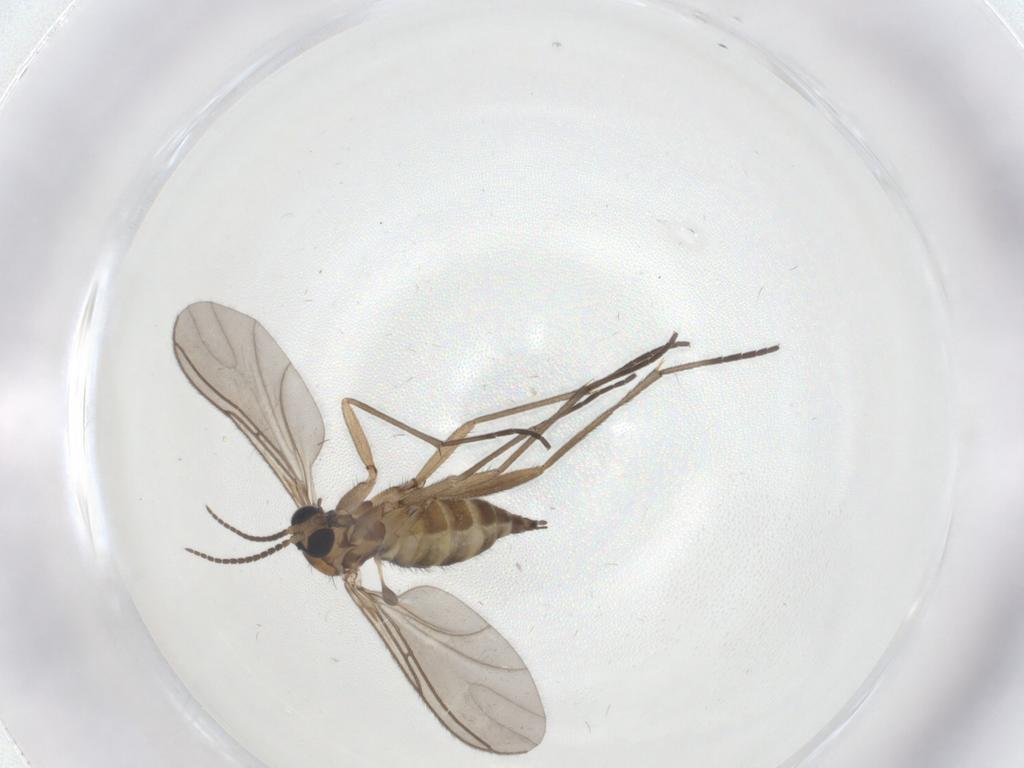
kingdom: Animalia
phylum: Arthropoda
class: Insecta
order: Diptera
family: Sciaridae
